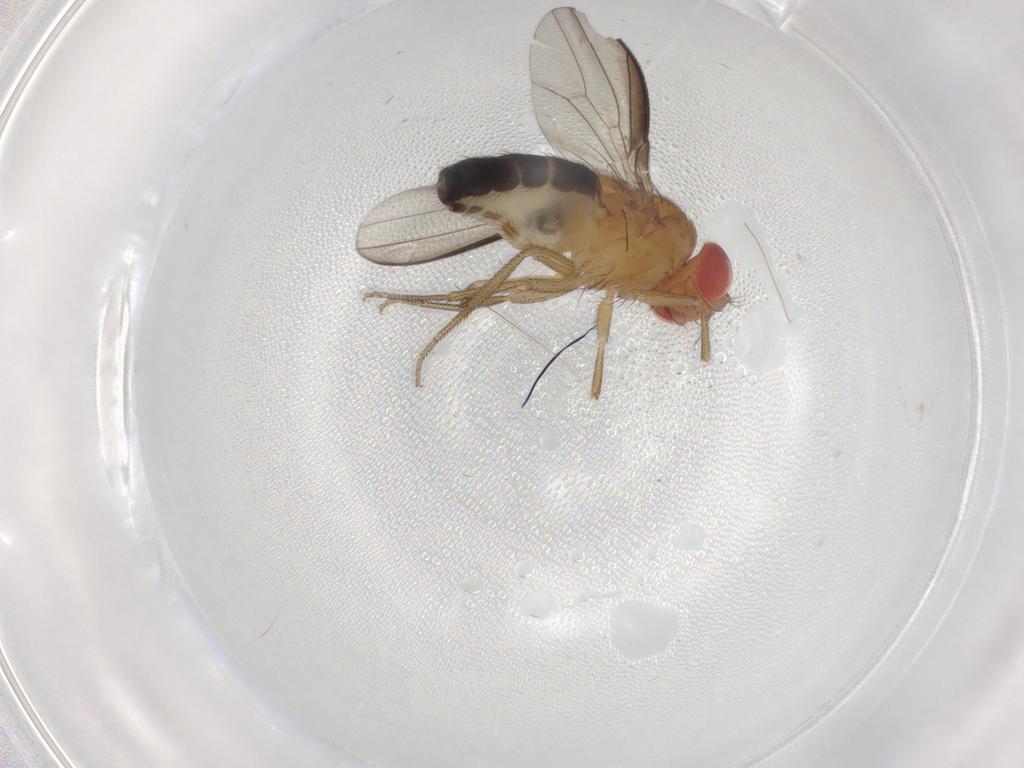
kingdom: Animalia
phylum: Arthropoda
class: Insecta
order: Diptera
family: Drosophilidae
